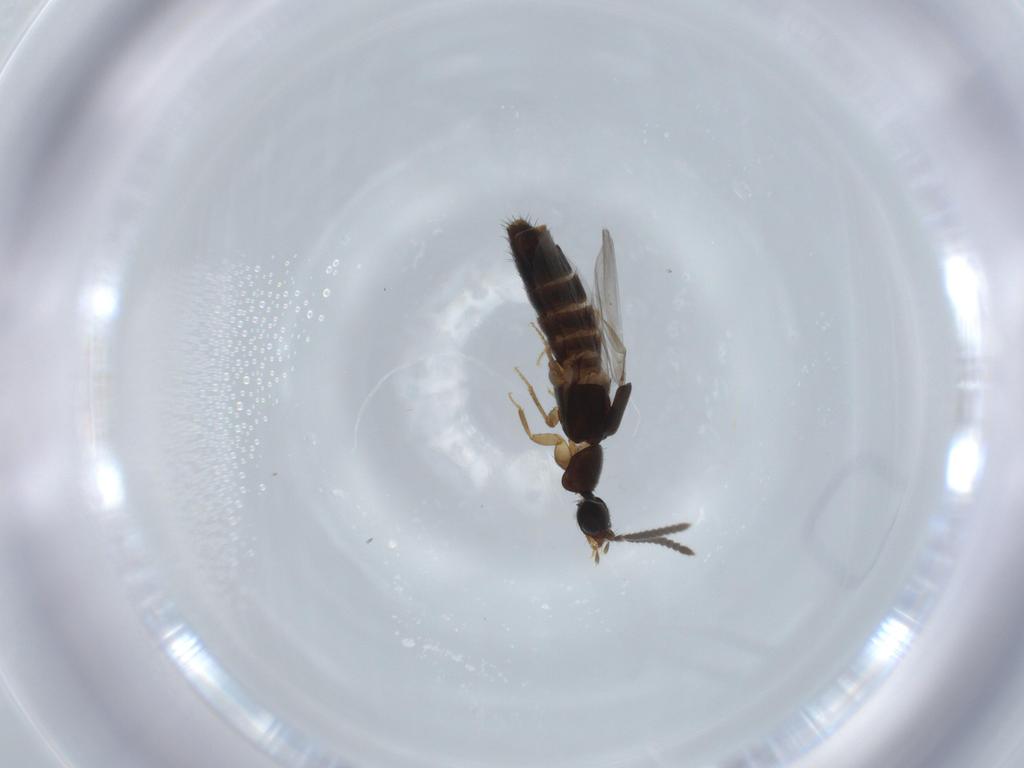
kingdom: Animalia
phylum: Arthropoda
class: Insecta
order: Coleoptera
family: Staphylinidae
